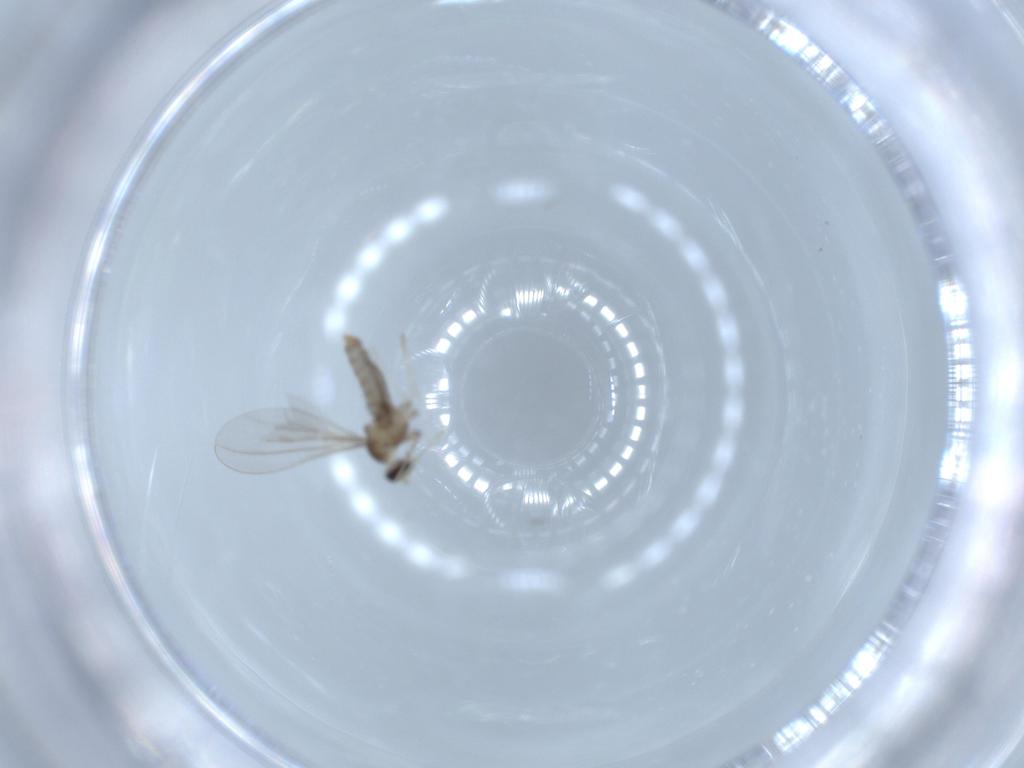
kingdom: Animalia
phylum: Arthropoda
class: Insecta
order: Diptera
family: Cecidomyiidae
